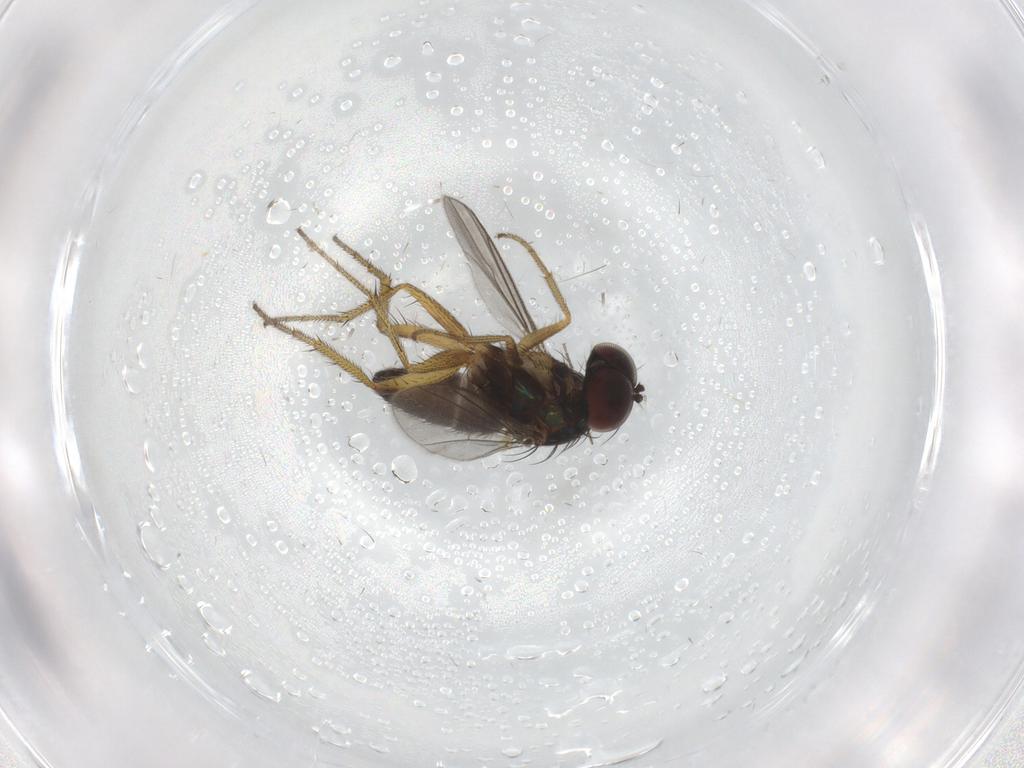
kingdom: Animalia
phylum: Arthropoda
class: Insecta
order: Diptera
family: Chironomidae
